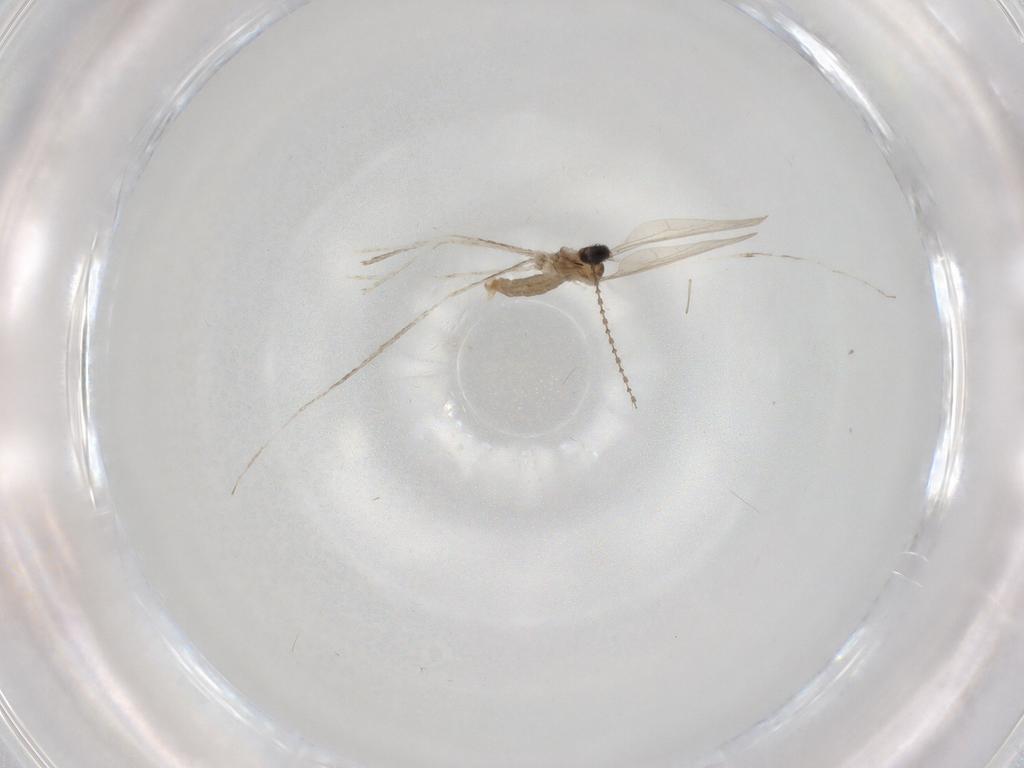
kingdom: Animalia
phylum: Arthropoda
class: Insecta
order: Diptera
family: Cecidomyiidae
